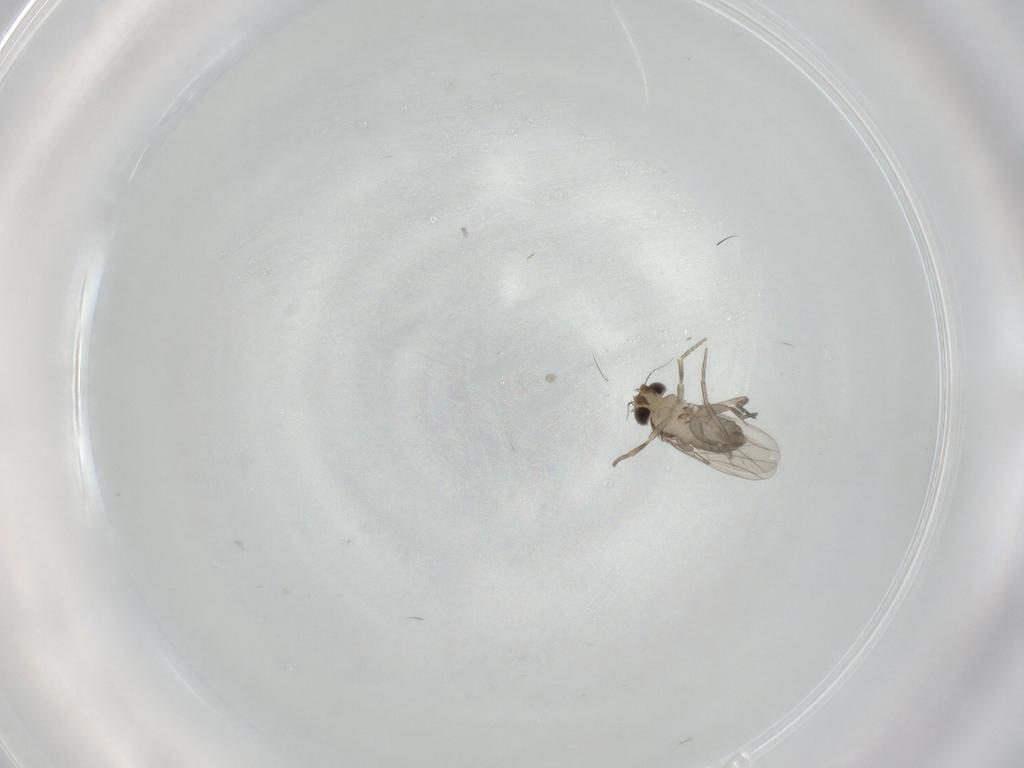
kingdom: Animalia
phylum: Arthropoda
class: Insecta
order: Diptera
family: Phoridae
